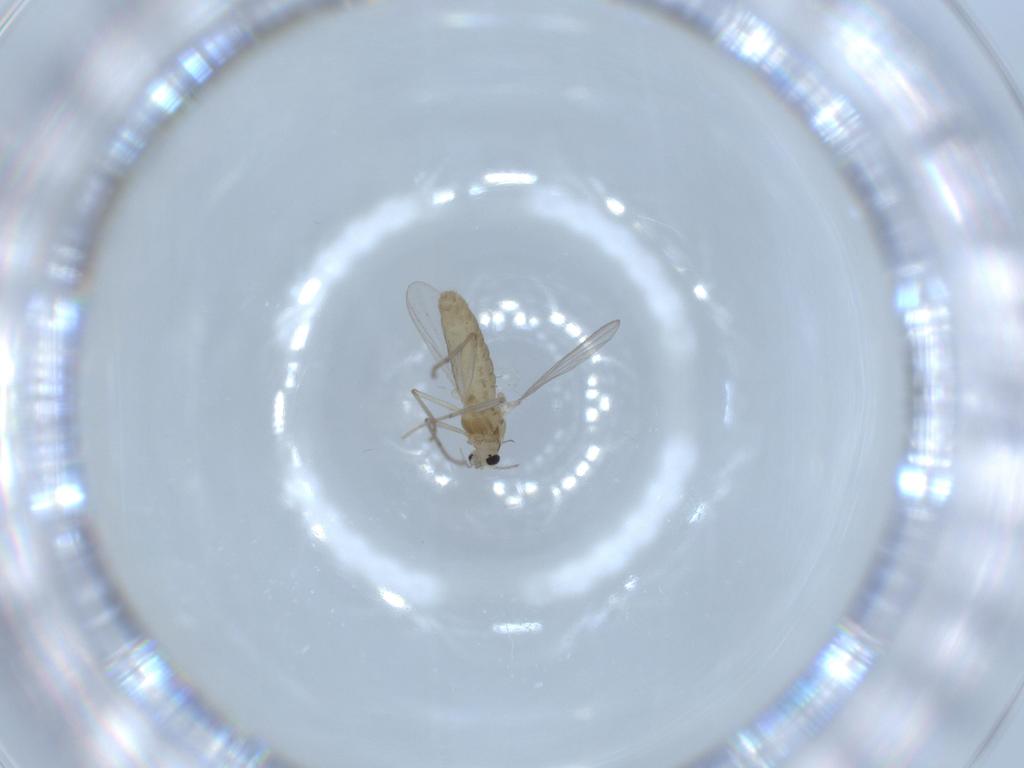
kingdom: Animalia
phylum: Arthropoda
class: Insecta
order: Diptera
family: Chironomidae
